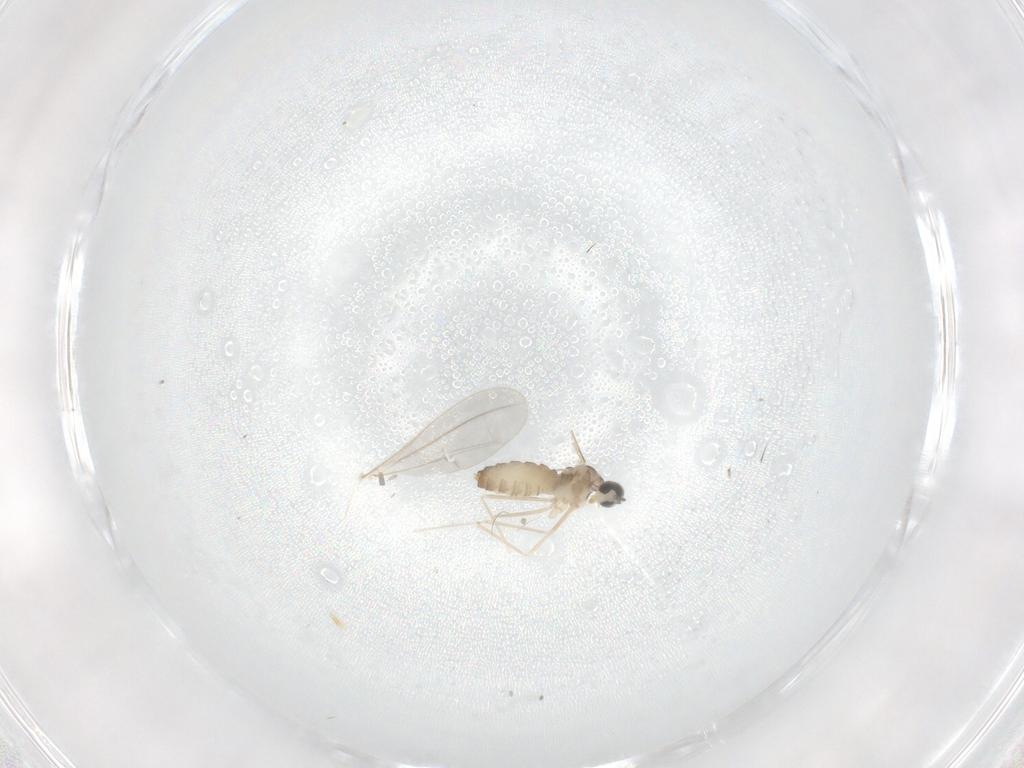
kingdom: Animalia
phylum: Arthropoda
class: Insecta
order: Diptera
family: Cecidomyiidae
